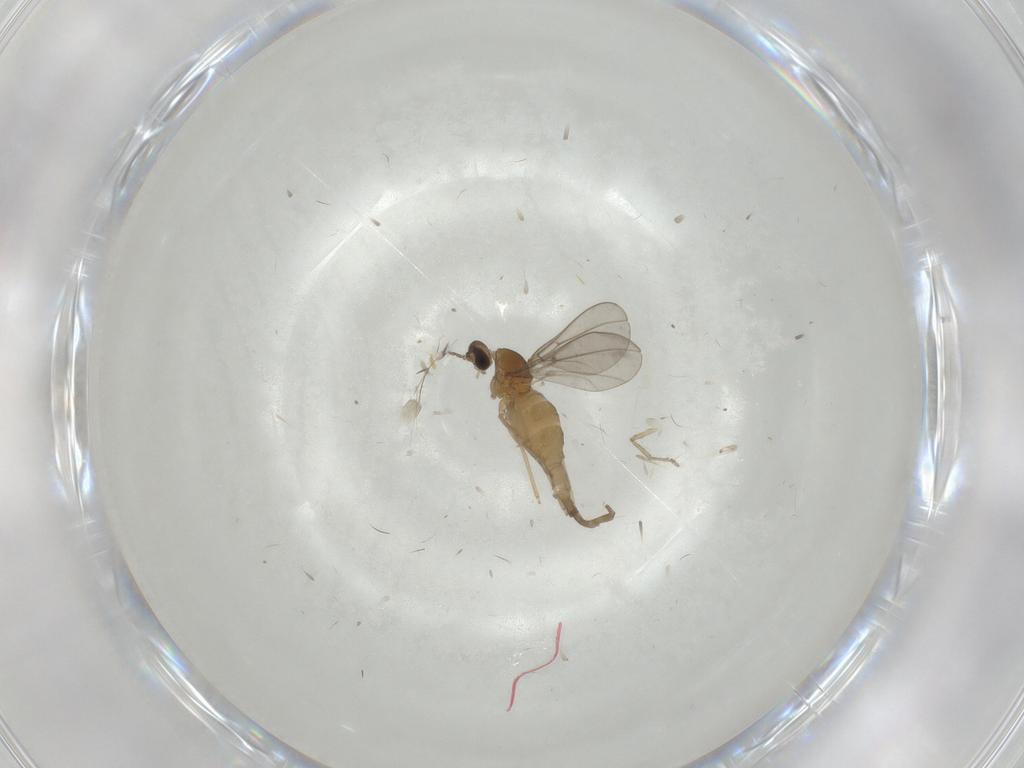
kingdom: Animalia
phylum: Arthropoda
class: Insecta
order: Diptera
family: Cecidomyiidae
